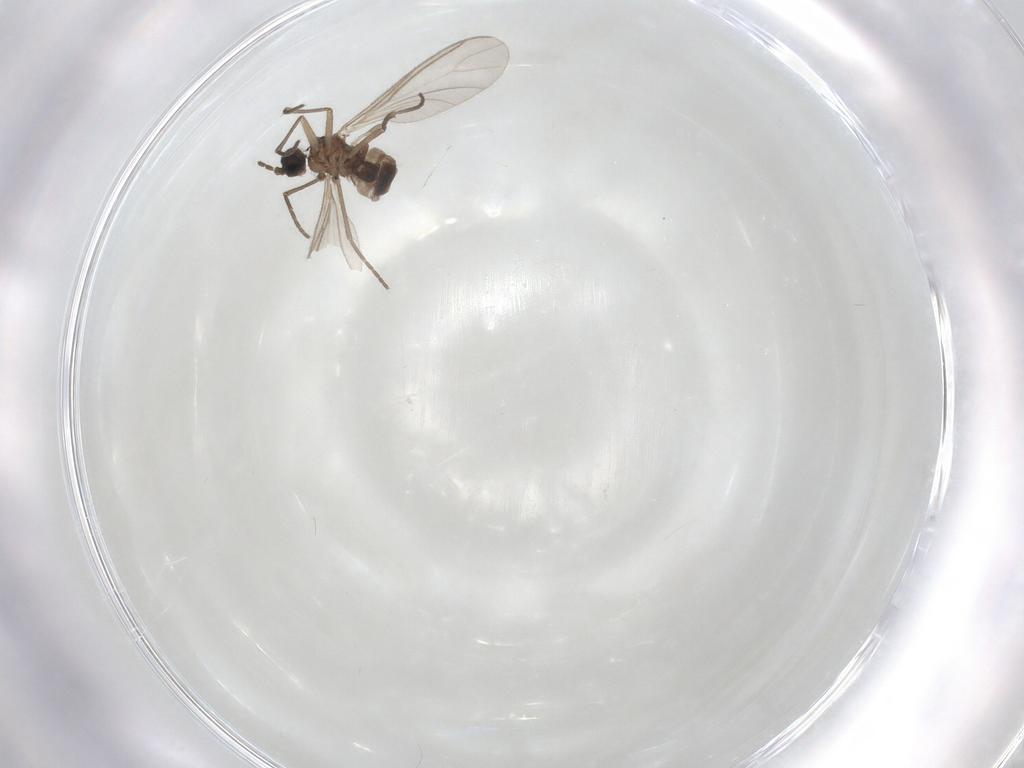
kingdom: Animalia
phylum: Arthropoda
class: Insecta
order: Diptera
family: Sciaridae
